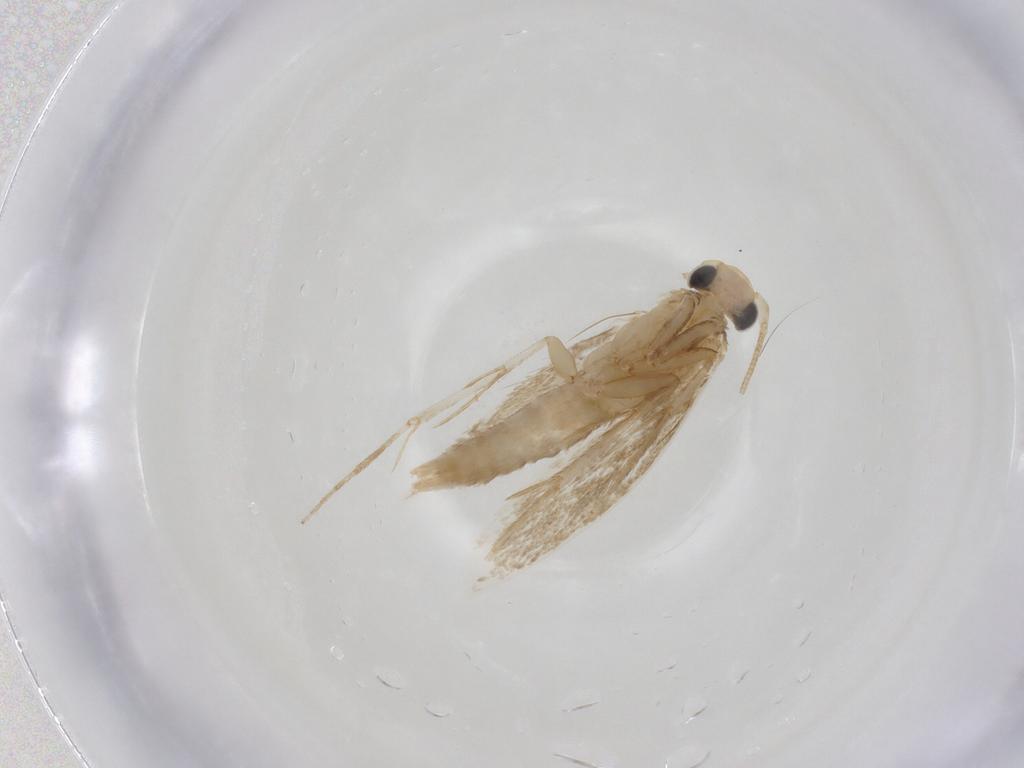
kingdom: Animalia
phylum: Arthropoda
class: Insecta
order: Lepidoptera
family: Tineidae
